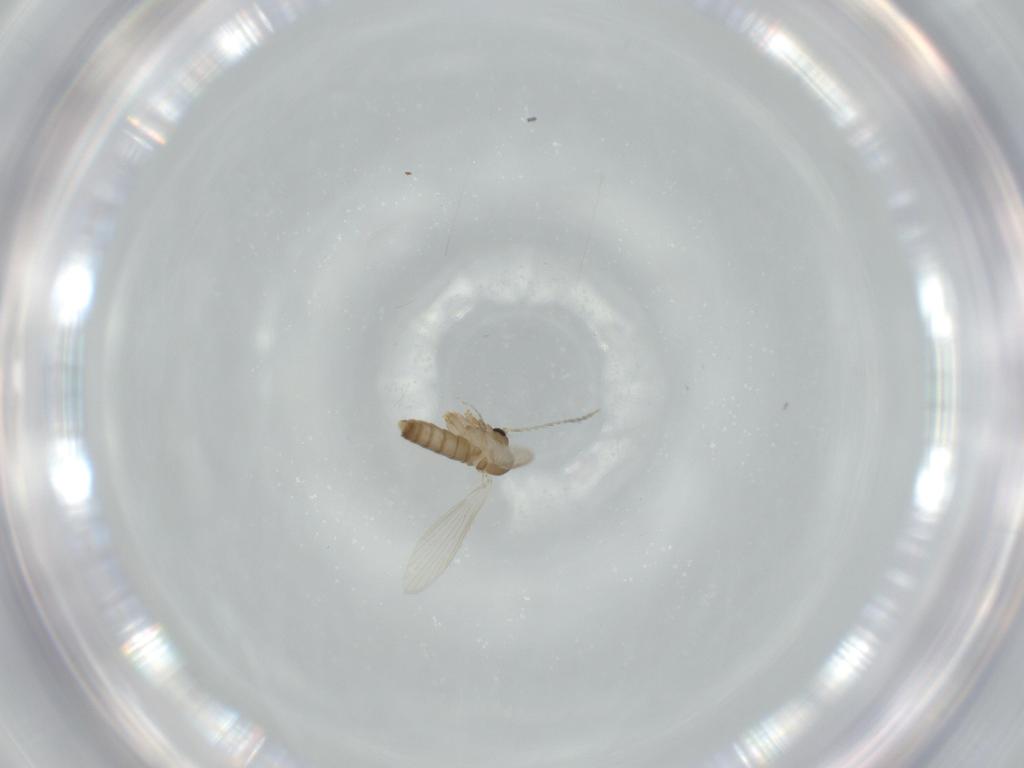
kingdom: Animalia
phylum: Arthropoda
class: Insecta
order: Diptera
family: Psychodidae
